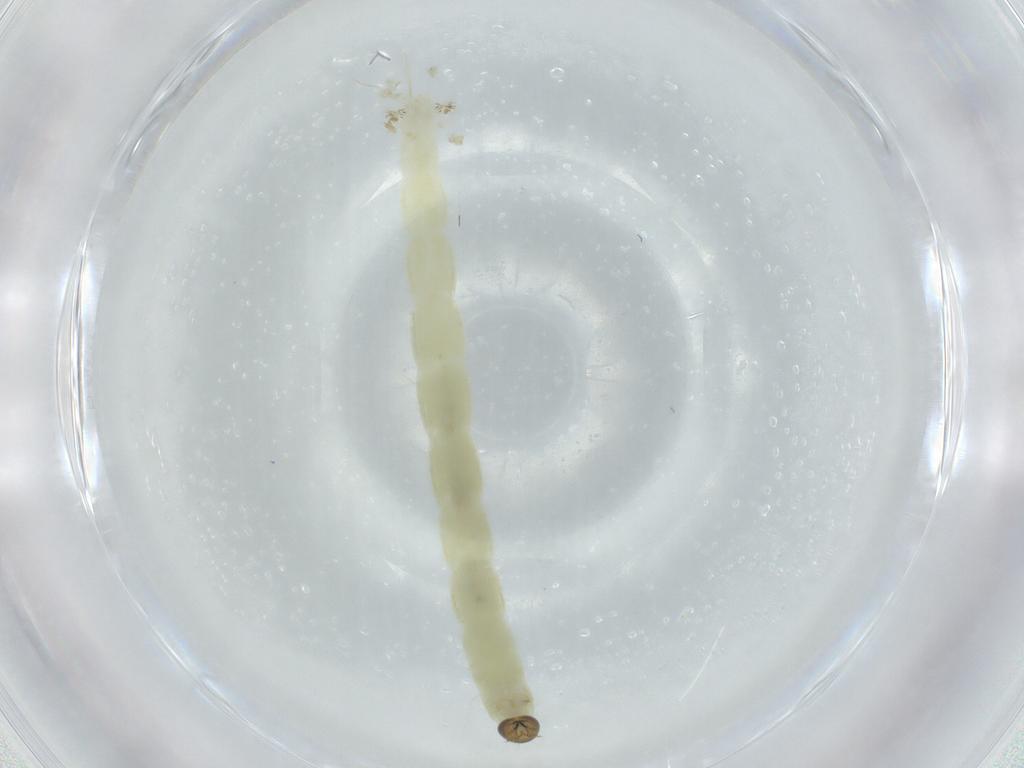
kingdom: Animalia
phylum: Arthropoda
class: Insecta
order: Diptera
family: Chironomidae
